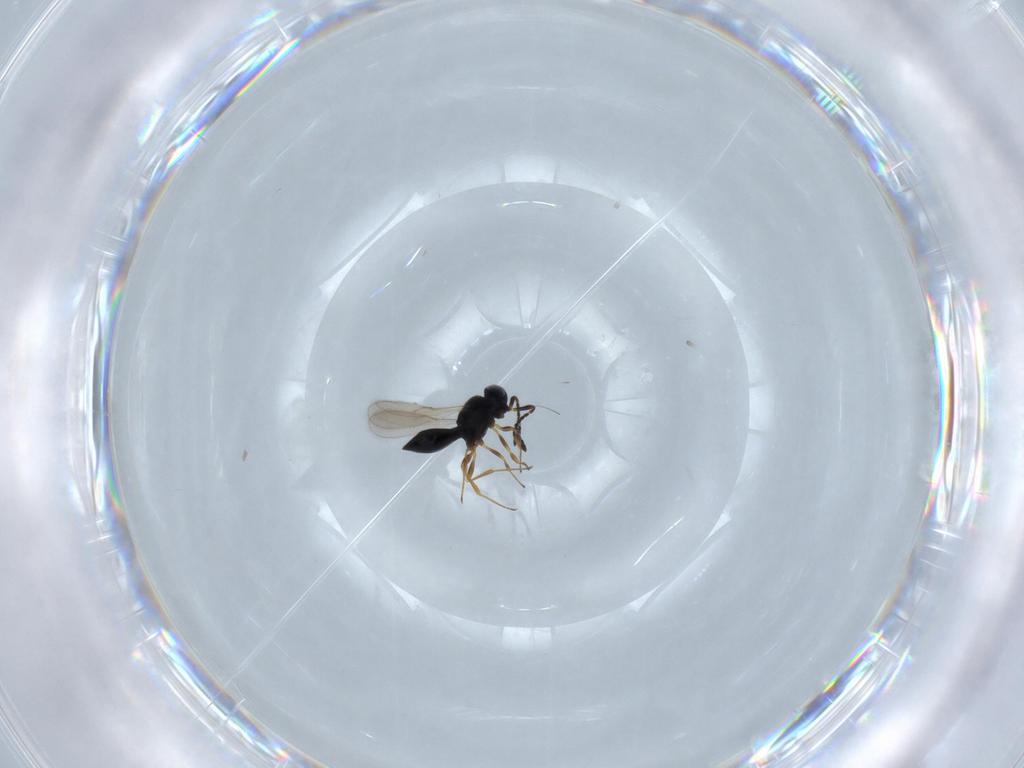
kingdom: Animalia
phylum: Arthropoda
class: Insecta
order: Hymenoptera
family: Scelionidae
